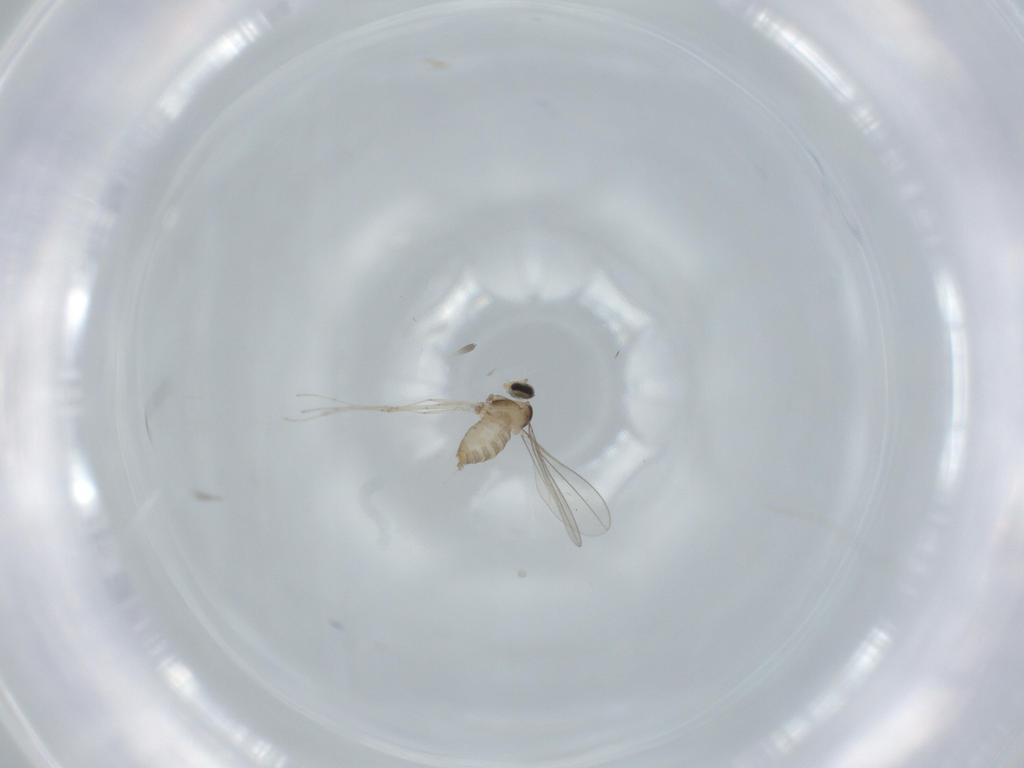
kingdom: Animalia
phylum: Arthropoda
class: Insecta
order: Diptera
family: Cecidomyiidae
